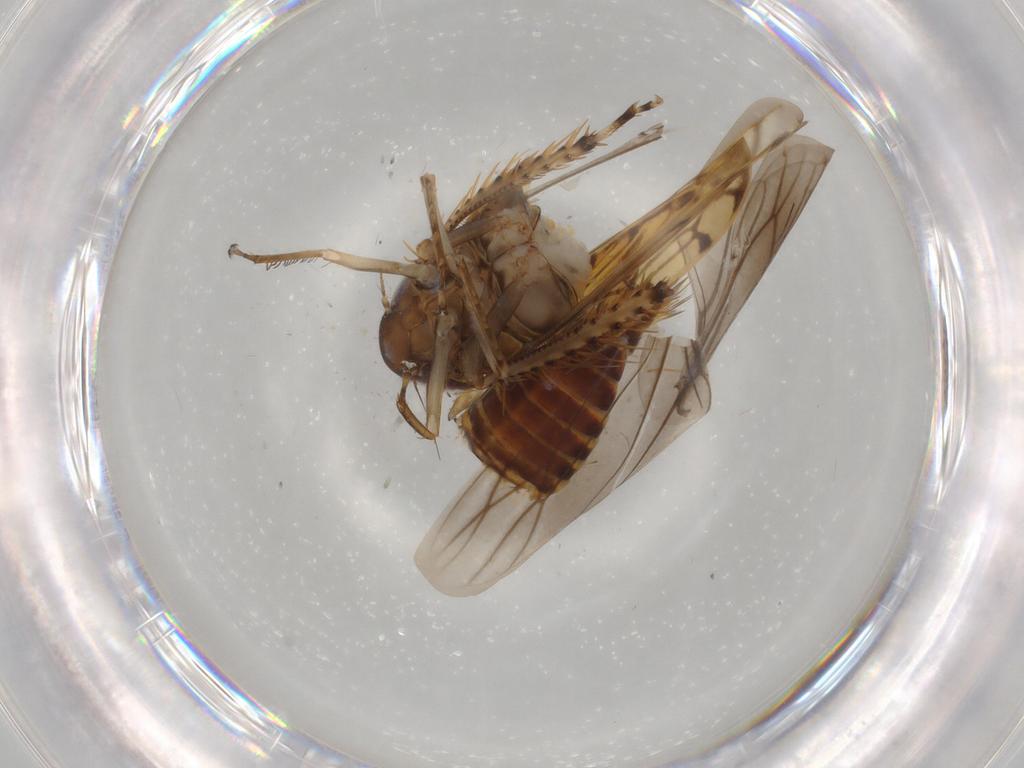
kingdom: Animalia
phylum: Arthropoda
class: Insecta
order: Hemiptera
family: Cicadellidae
